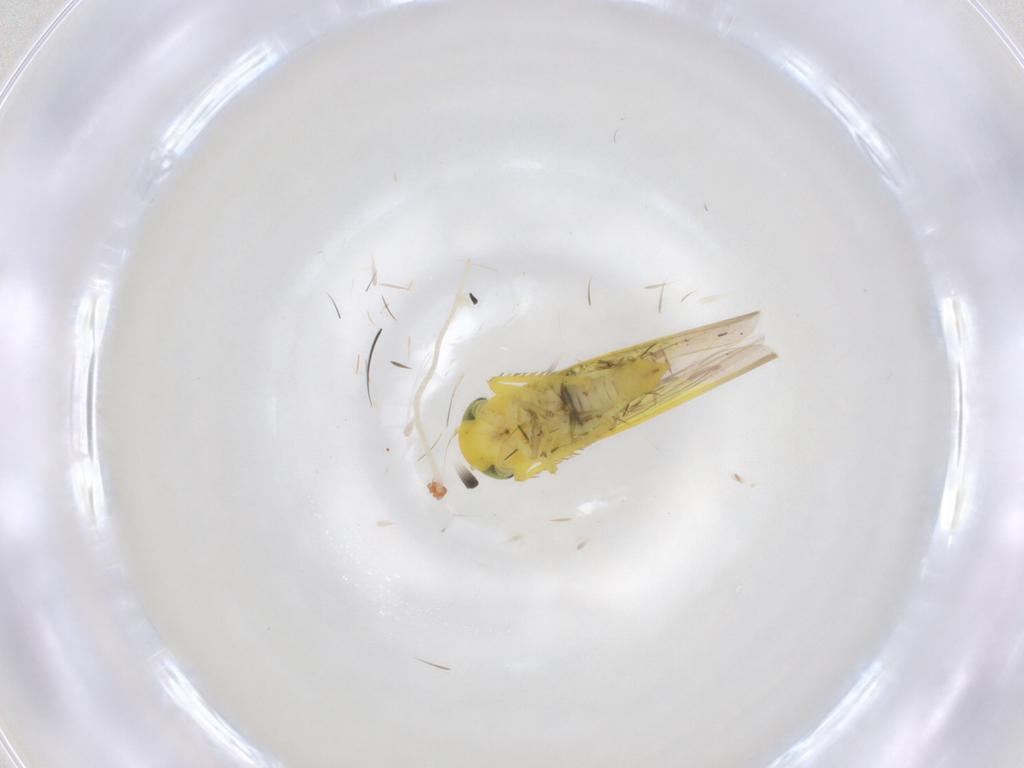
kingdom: Animalia
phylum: Arthropoda
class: Insecta
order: Hemiptera
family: Cicadellidae
